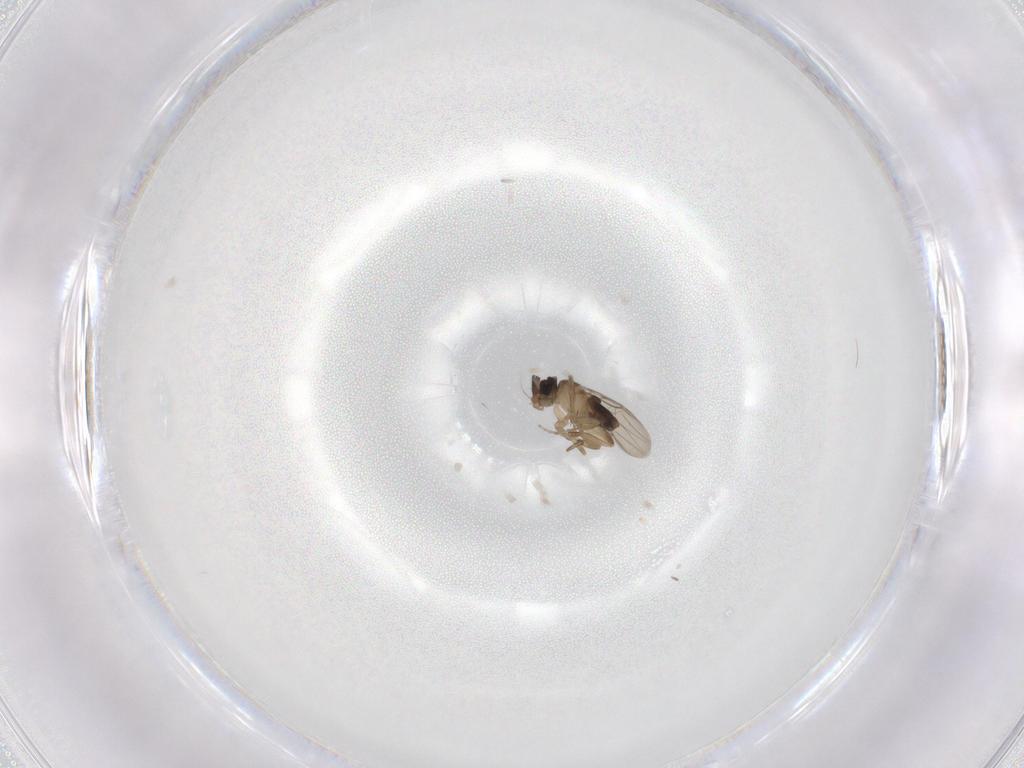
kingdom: Animalia
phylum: Arthropoda
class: Insecta
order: Diptera
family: Phoridae
